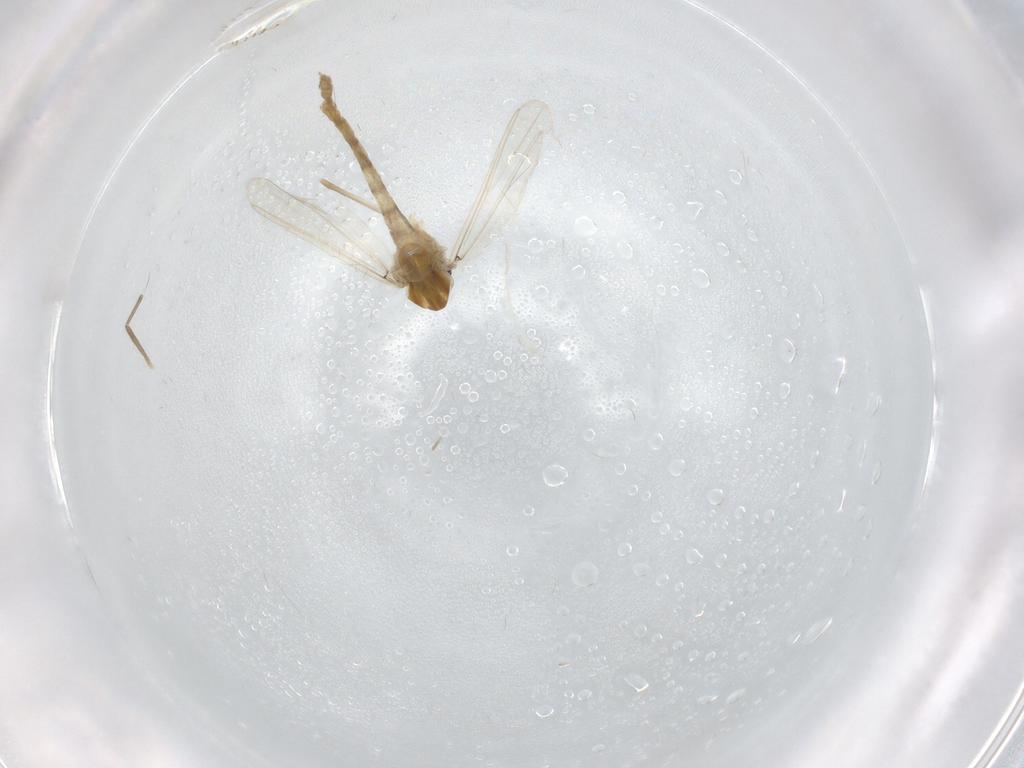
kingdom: Animalia
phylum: Arthropoda
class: Insecta
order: Diptera
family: Chaoboridae
